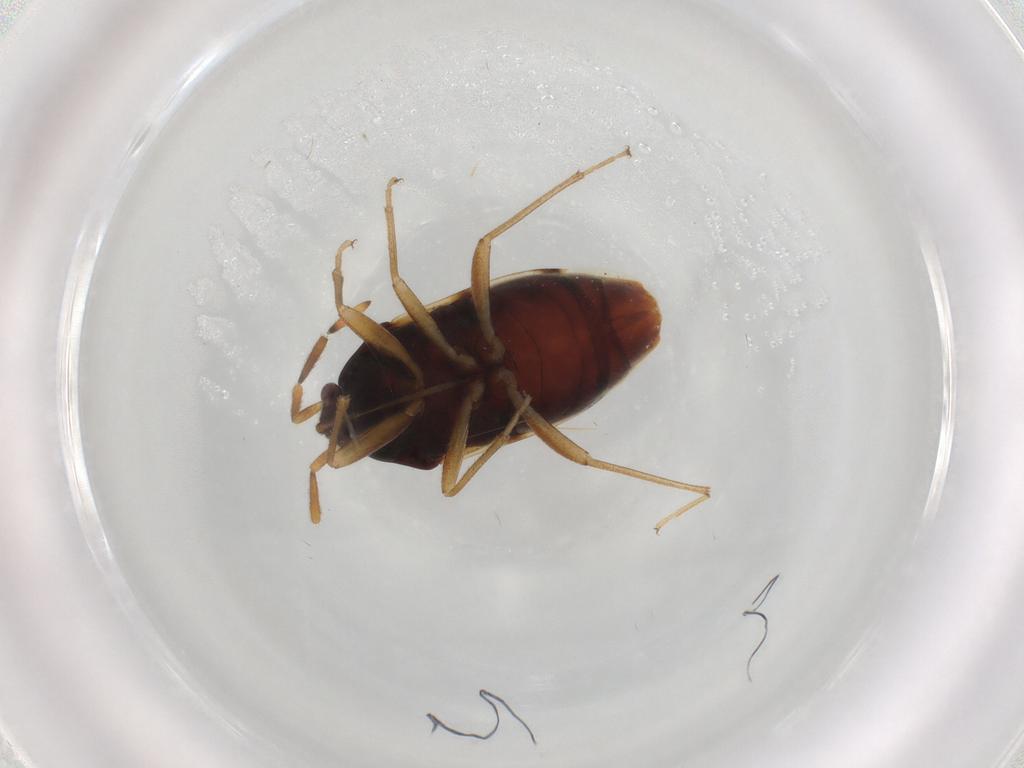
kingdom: Animalia
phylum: Arthropoda
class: Insecta
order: Hemiptera
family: Rhyparochromidae
